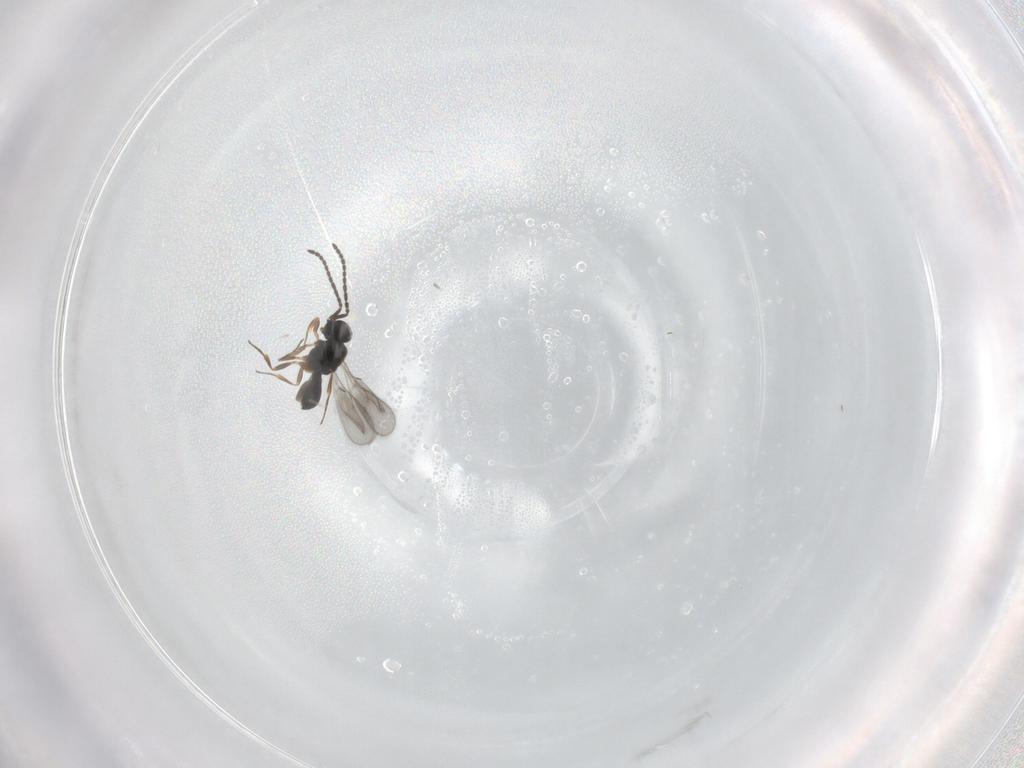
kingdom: Animalia
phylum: Arthropoda
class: Insecta
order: Hymenoptera
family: Scelionidae
